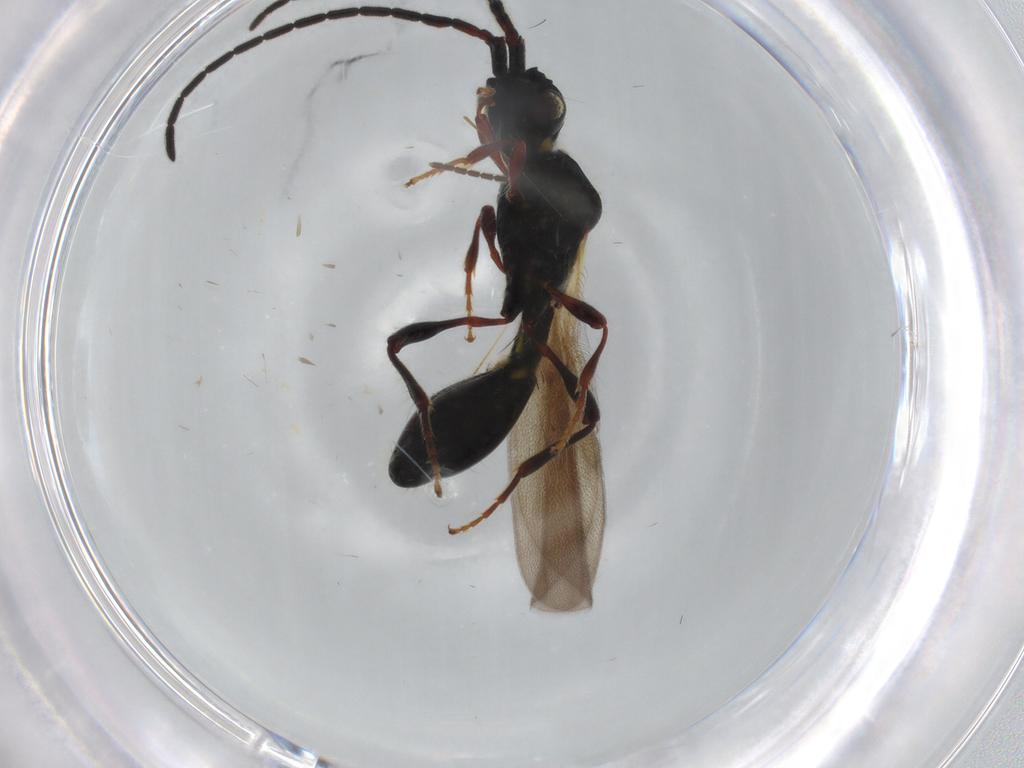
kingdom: Animalia
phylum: Arthropoda
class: Insecta
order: Hymenoptera
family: Diapriidae
